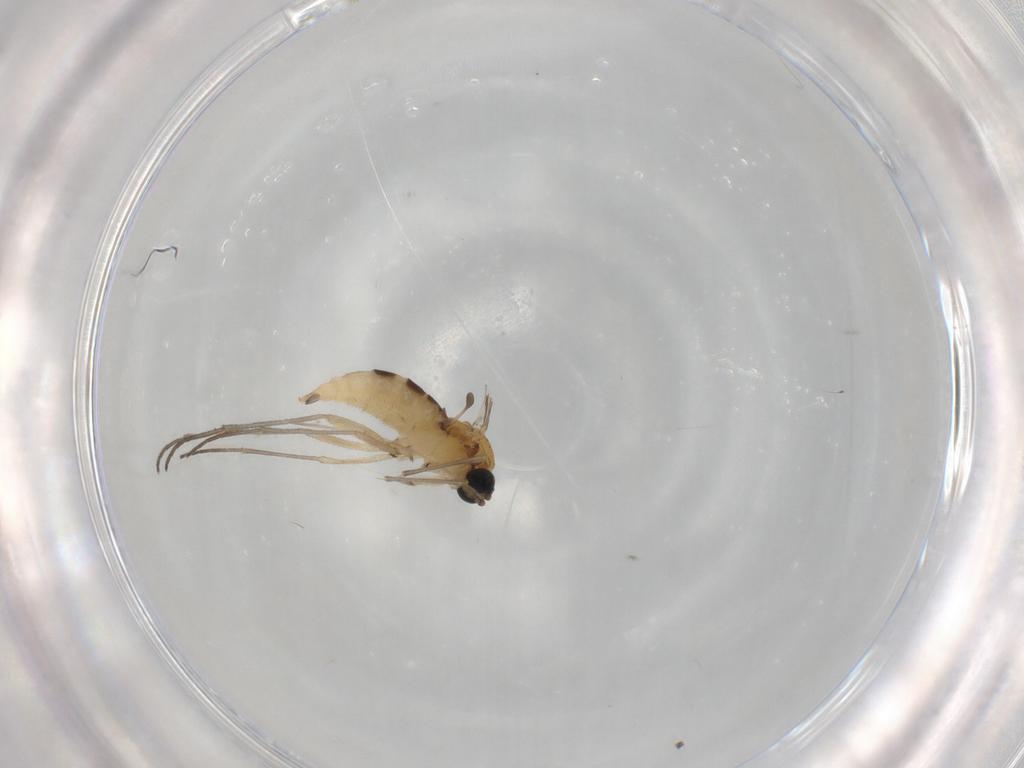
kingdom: Animalia
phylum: Arthropoda
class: Insecta
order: Diptera
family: Sciaridae
